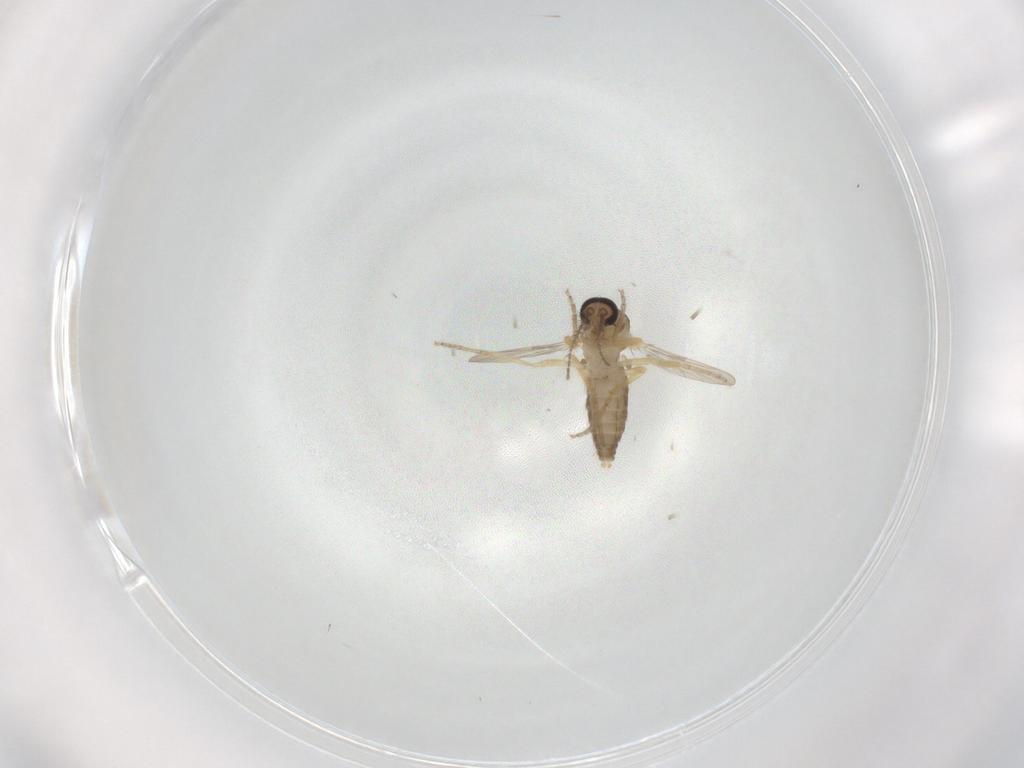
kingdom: Animalia
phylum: Arthropoda
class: Insecta
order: Diptera
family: Ceratopogonidae
